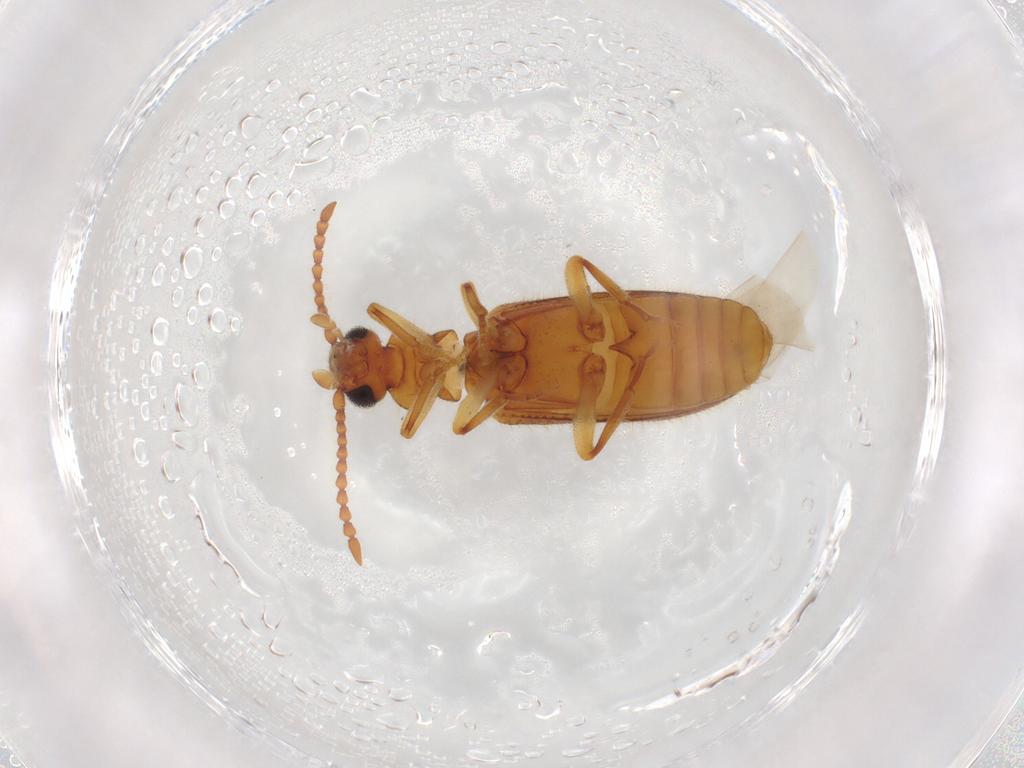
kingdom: Animalia
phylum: Arthropoda
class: Insecta
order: Coleoptera
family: Anthicidae
